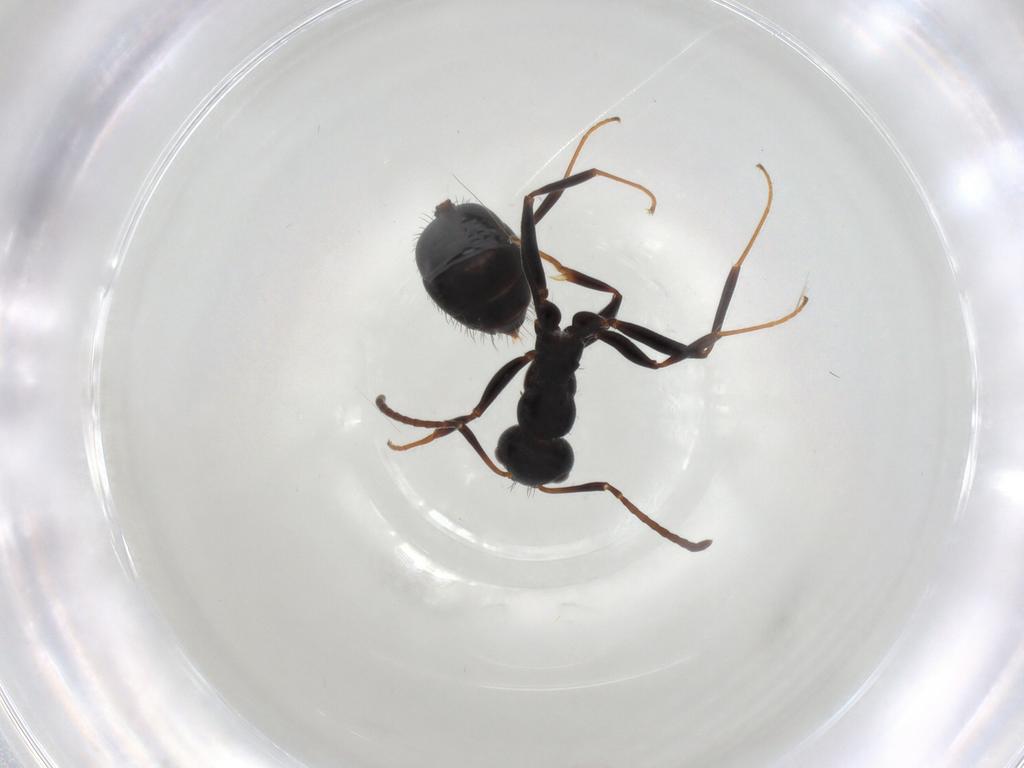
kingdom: Animalia
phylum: Arthropoda
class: Insecta
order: Hymenoptera
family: Formicidae
